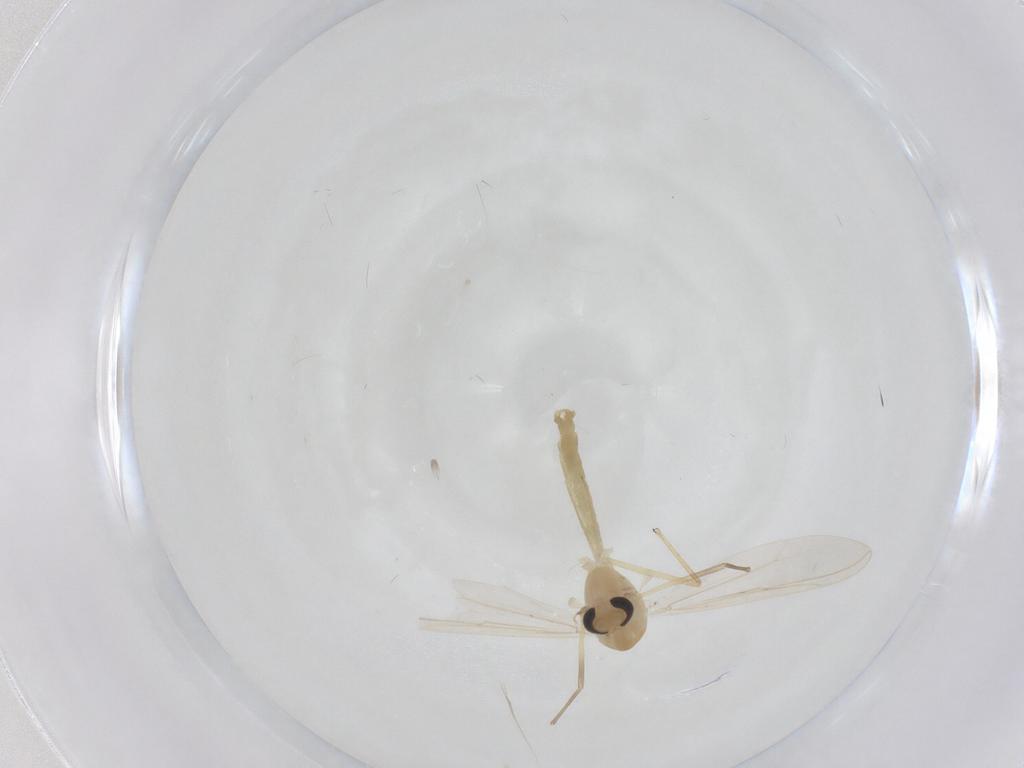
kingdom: Animalia
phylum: Arthropoda
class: Insecta
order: Diptera
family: Chironomidae
